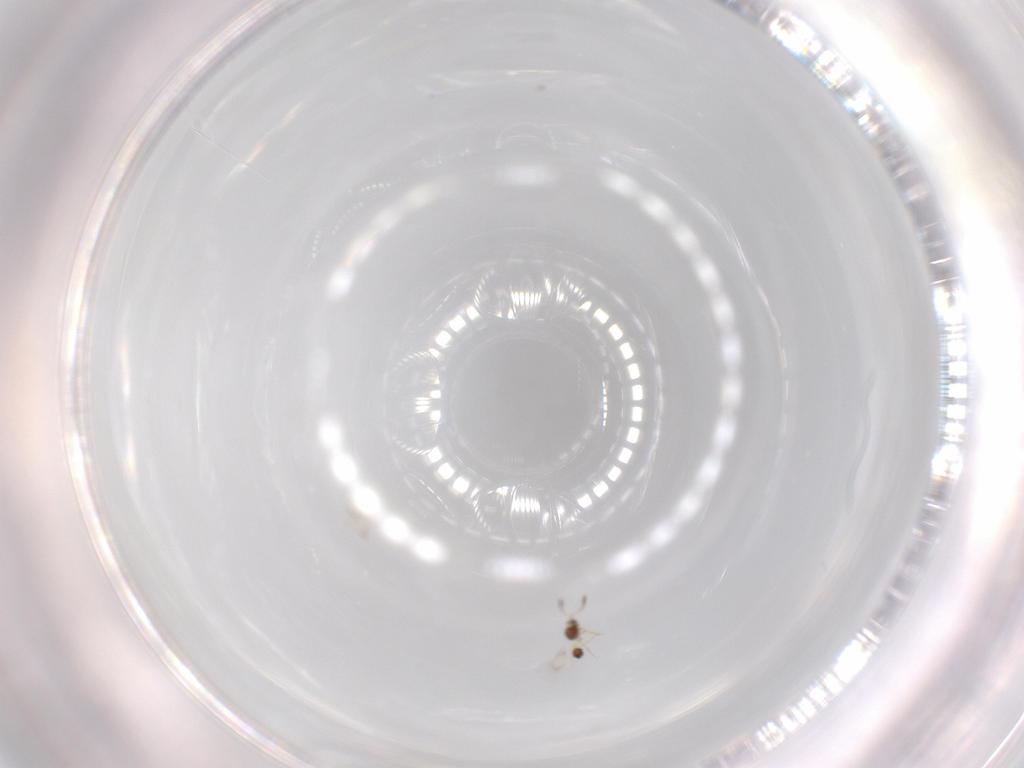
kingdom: Animalia
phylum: Arthropoda
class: Insecta
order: Hymenoptera
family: Mymarommatidae
